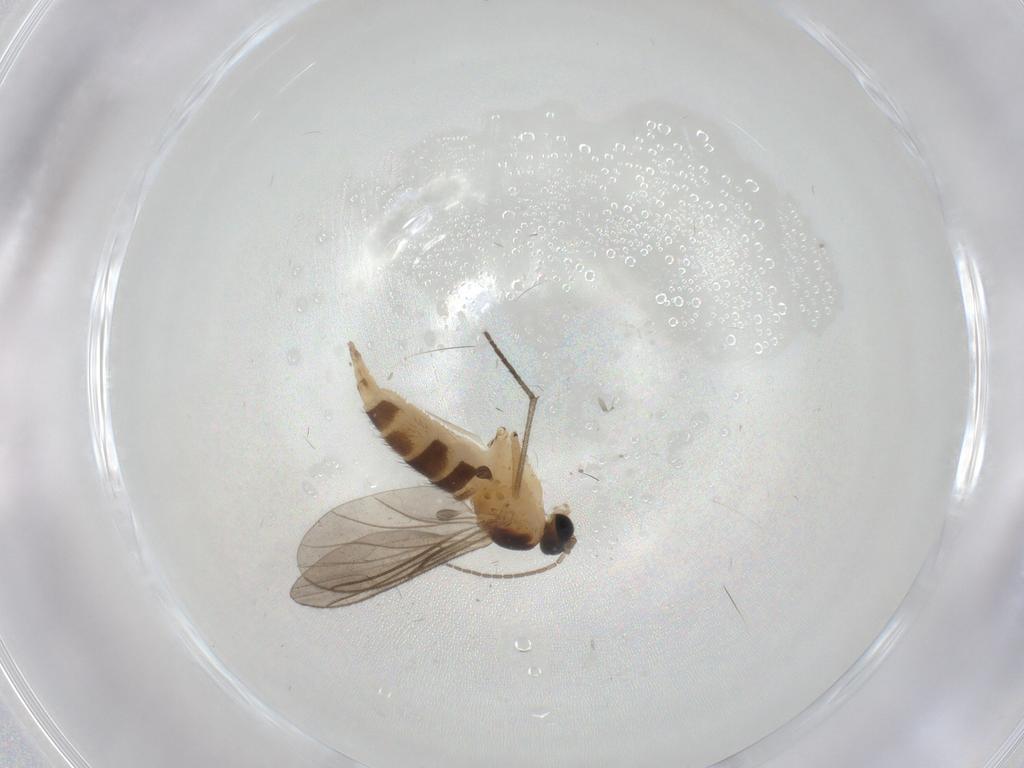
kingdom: Animalia
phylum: Arthropoda
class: Insecta
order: Diptera
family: Sciaridae
